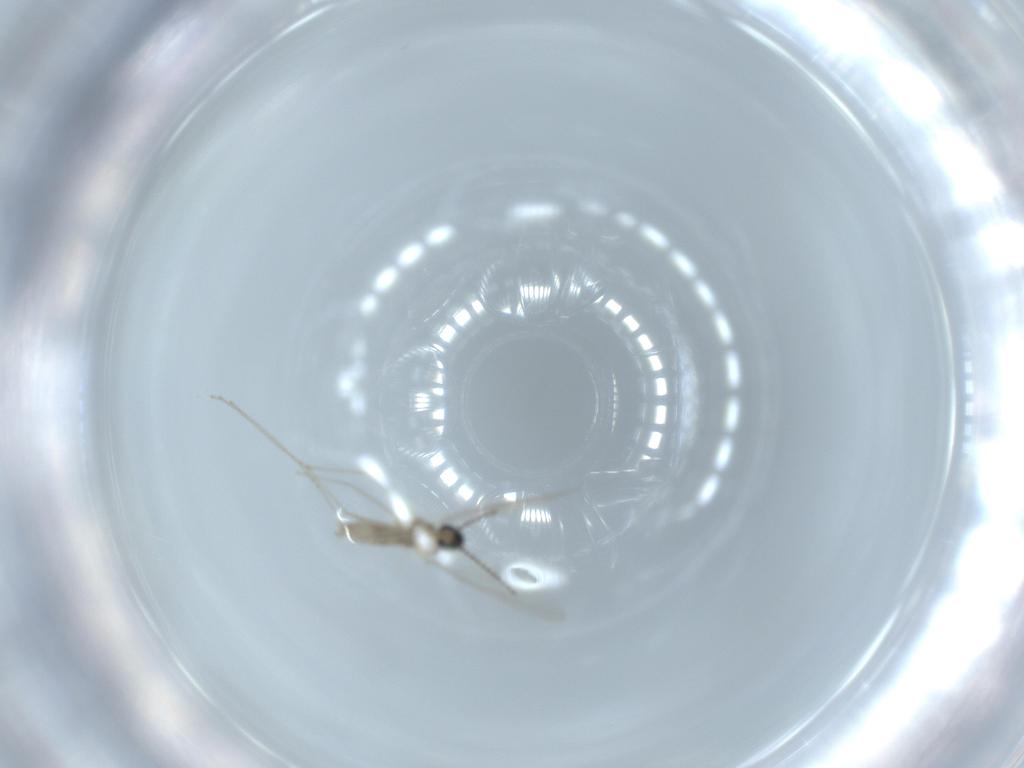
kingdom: Animalia
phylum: Arthropoda
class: Insecta
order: Diptera
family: Cecidomyiidae
